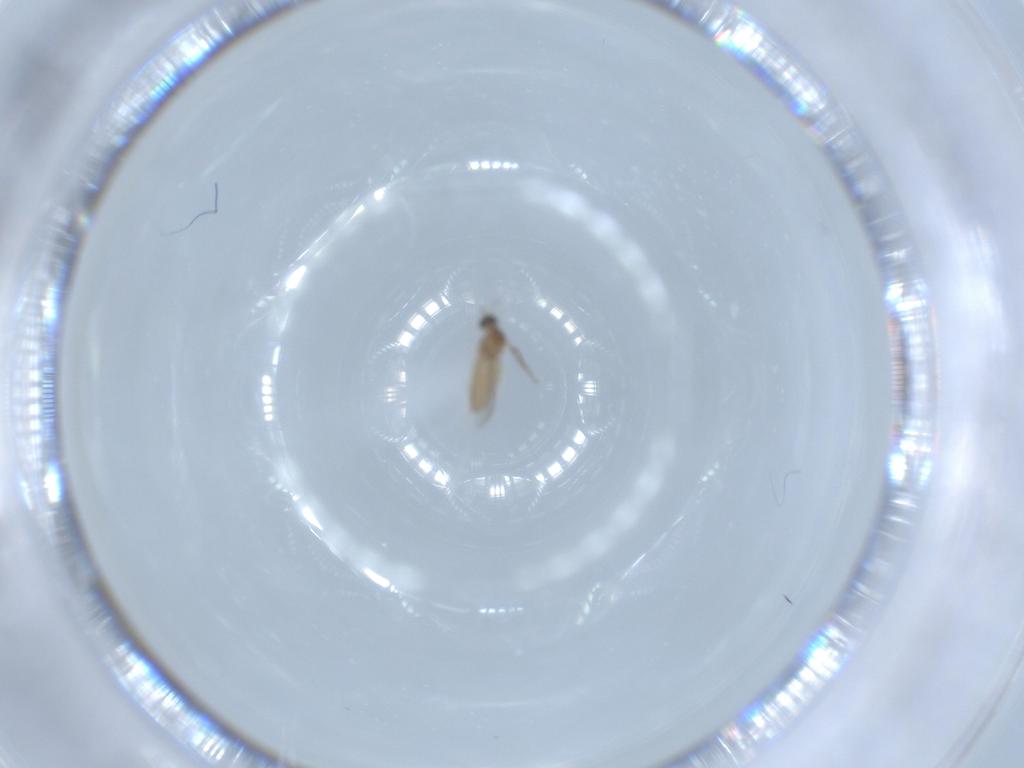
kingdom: Animalia
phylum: Arthropoda
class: Insecta
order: Diptera
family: Cecidomyiidae
